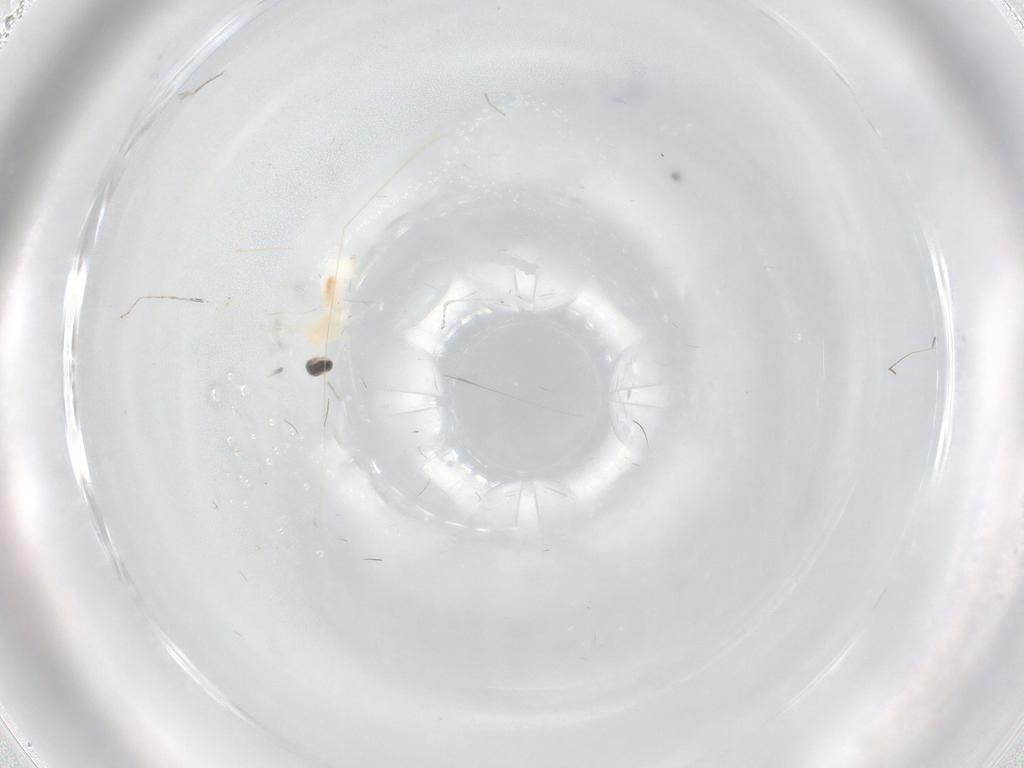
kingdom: Animalia
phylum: Arthropoda
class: Insecta
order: Diptera
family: Cecidomyiidae
